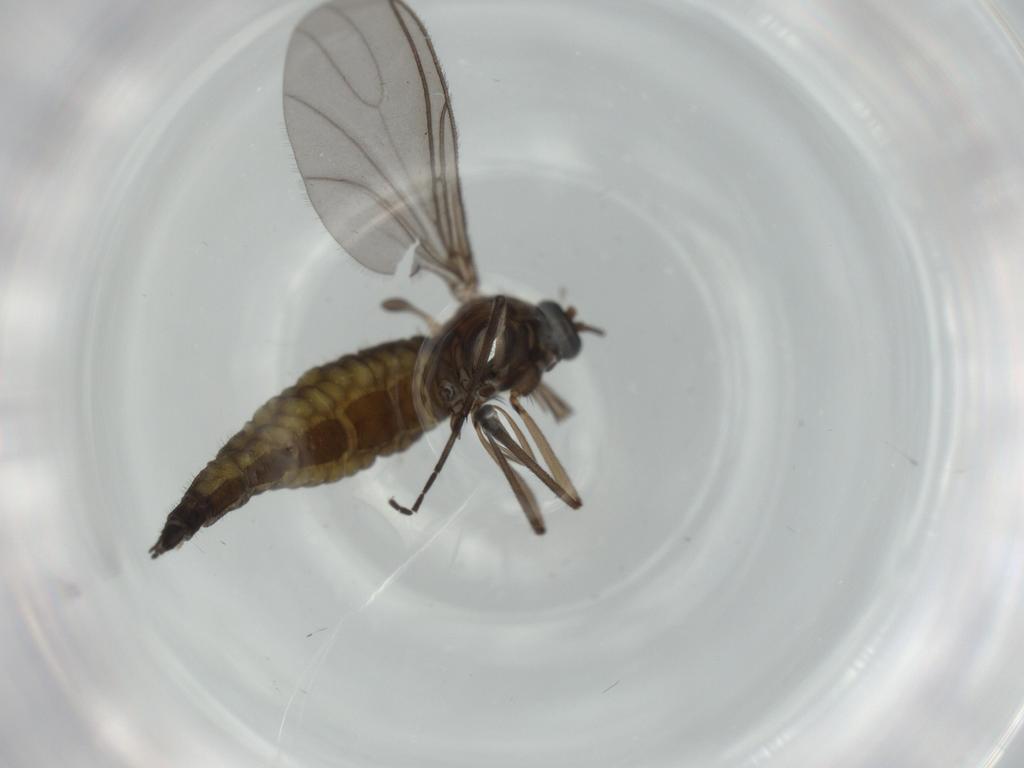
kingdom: Animalia
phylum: Arthropoda
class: Insecta
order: Diptera
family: Sciaridae
